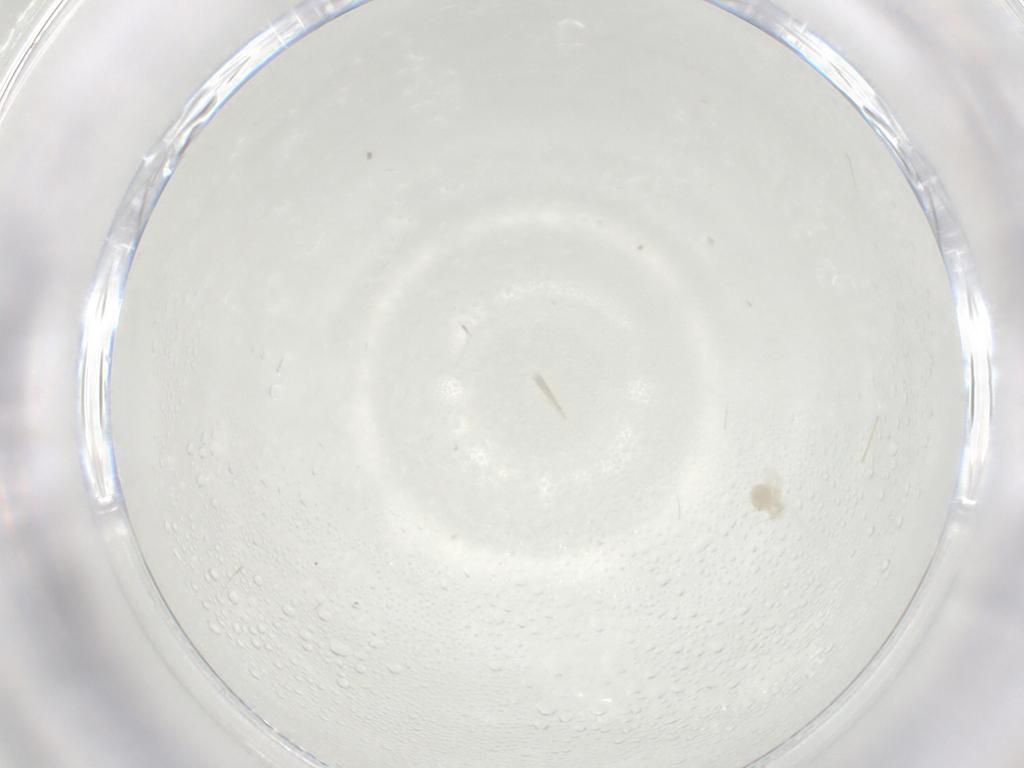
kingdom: Animalia
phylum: Arthropoda
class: Arachnida
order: Trombidiformes
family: Anystidae
